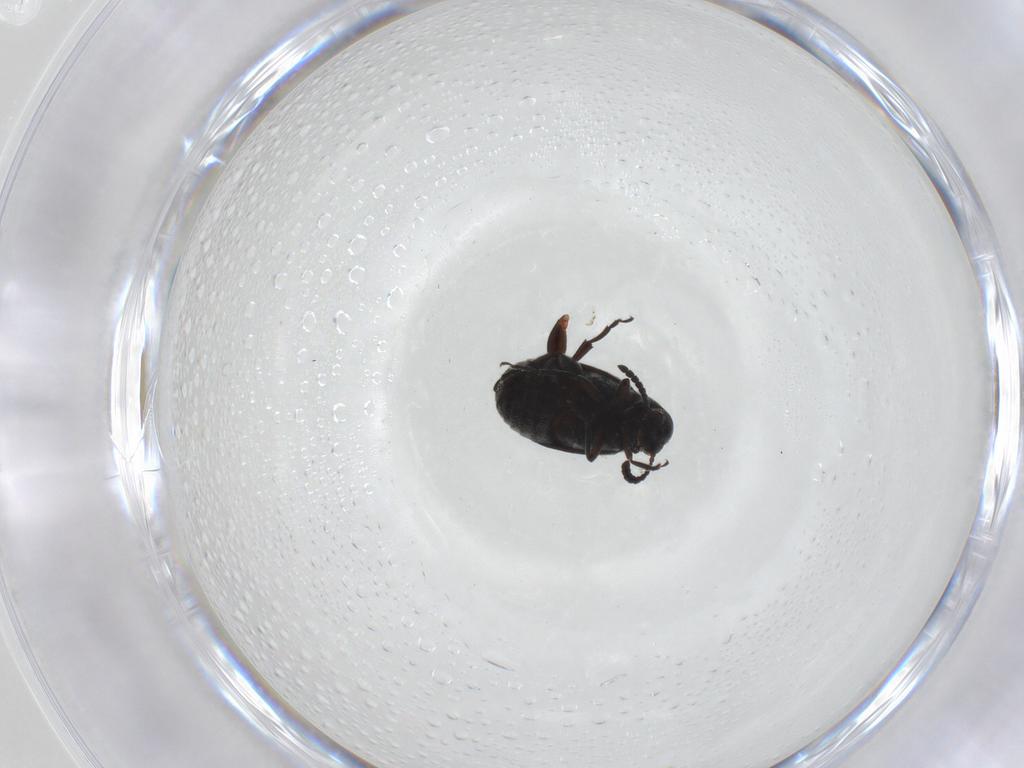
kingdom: Animalia
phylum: Arthropoda
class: Insecta
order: Coleoptera
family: Chrysomelidae
